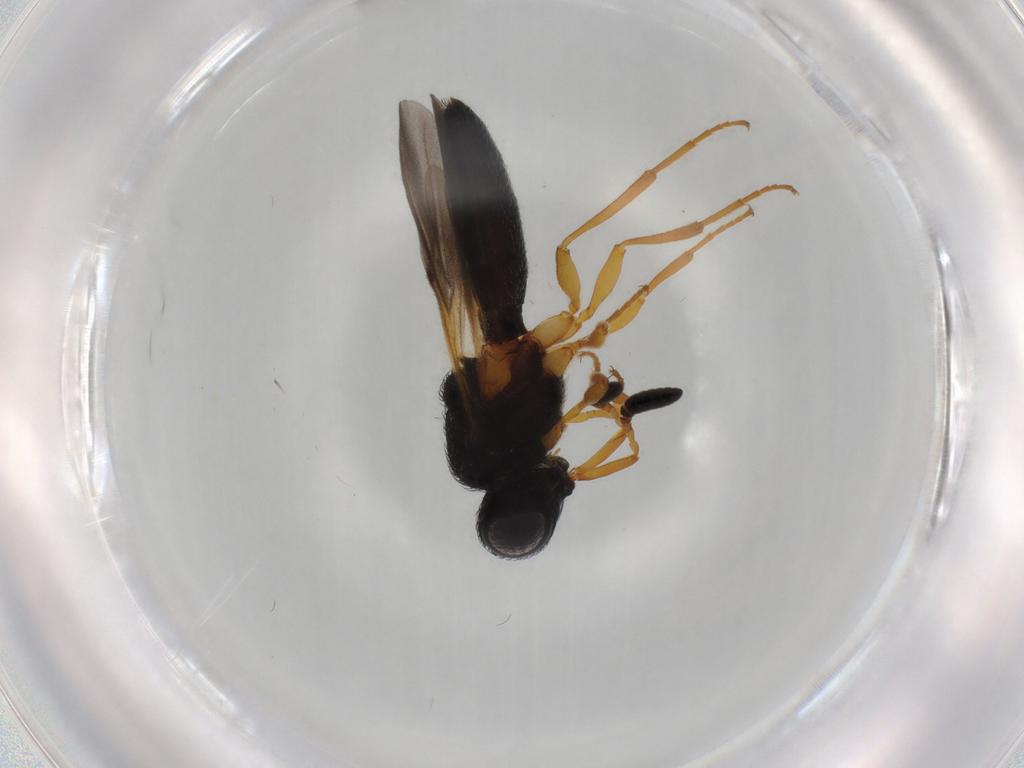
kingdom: Animalia
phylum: Arthropoda
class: Insecta
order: Hymenoptera
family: Scelionidae
